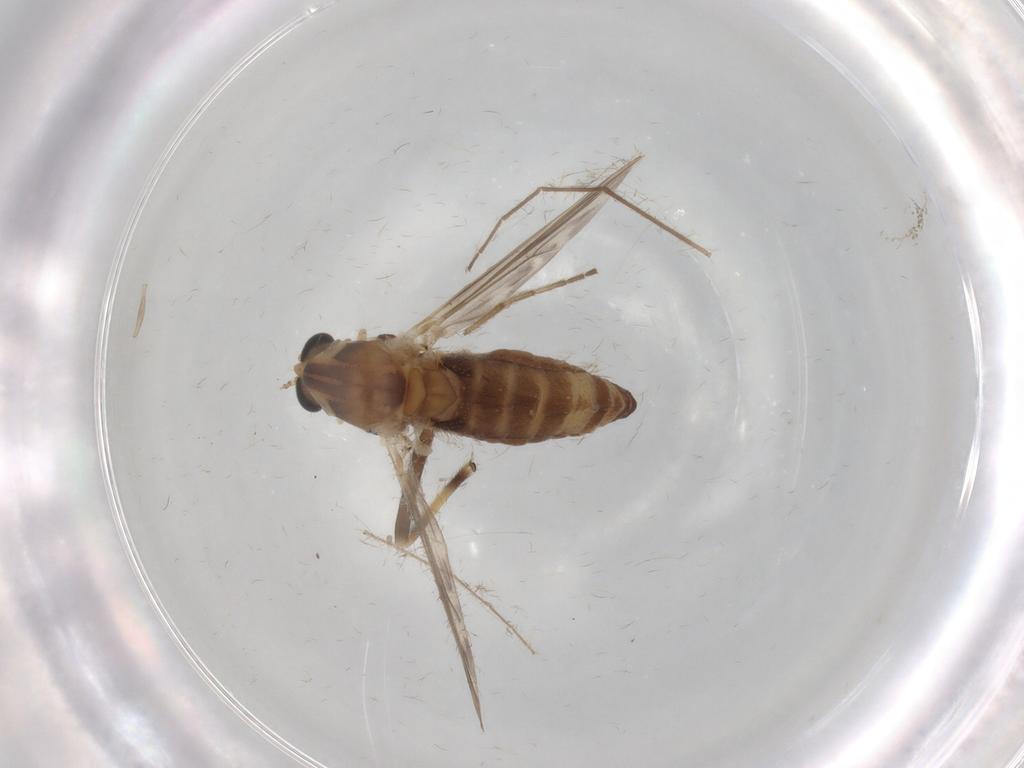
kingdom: Animalia
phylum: Arthropoda
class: Insecta
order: Diptera
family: Chironomidae
